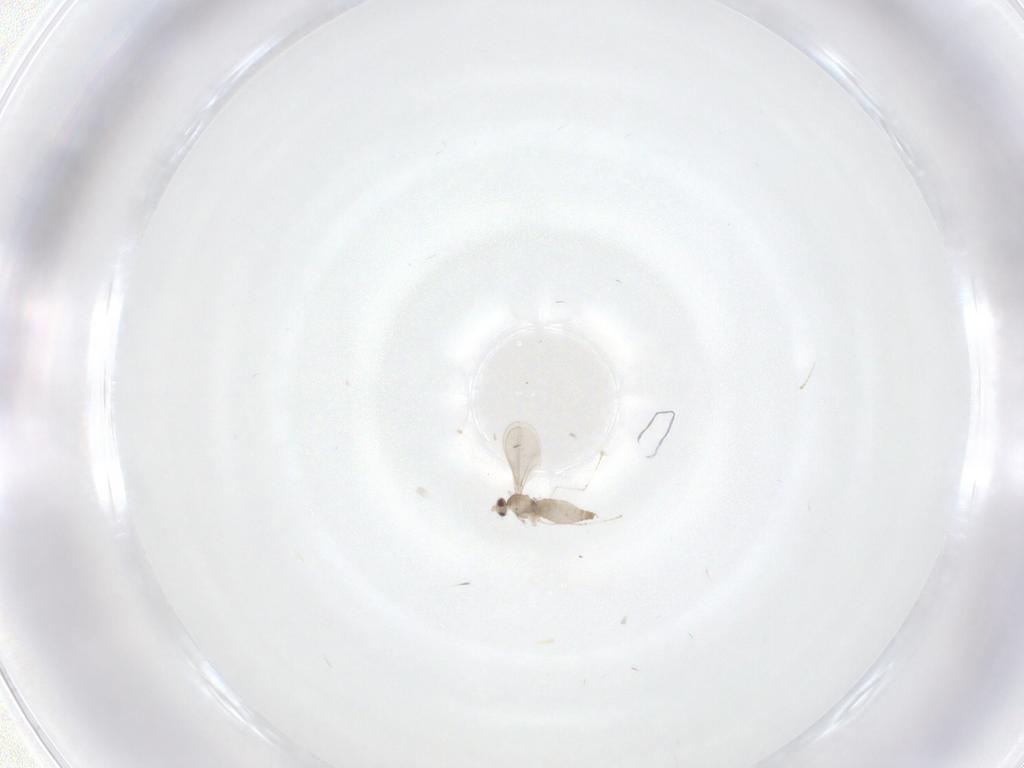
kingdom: Animalia
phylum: Arthropoda
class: Insecta
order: Diptera
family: Cecidomyiidae
